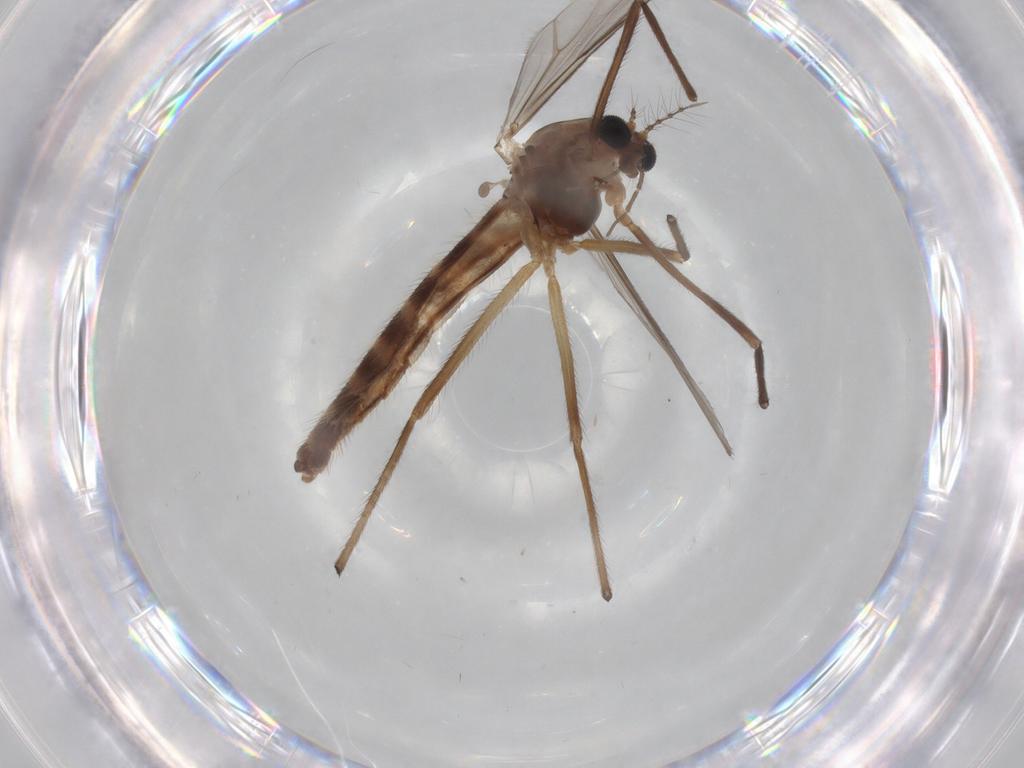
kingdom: Animalia
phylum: Arthropoda
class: Insecta
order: Diptera
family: Chironomidae
